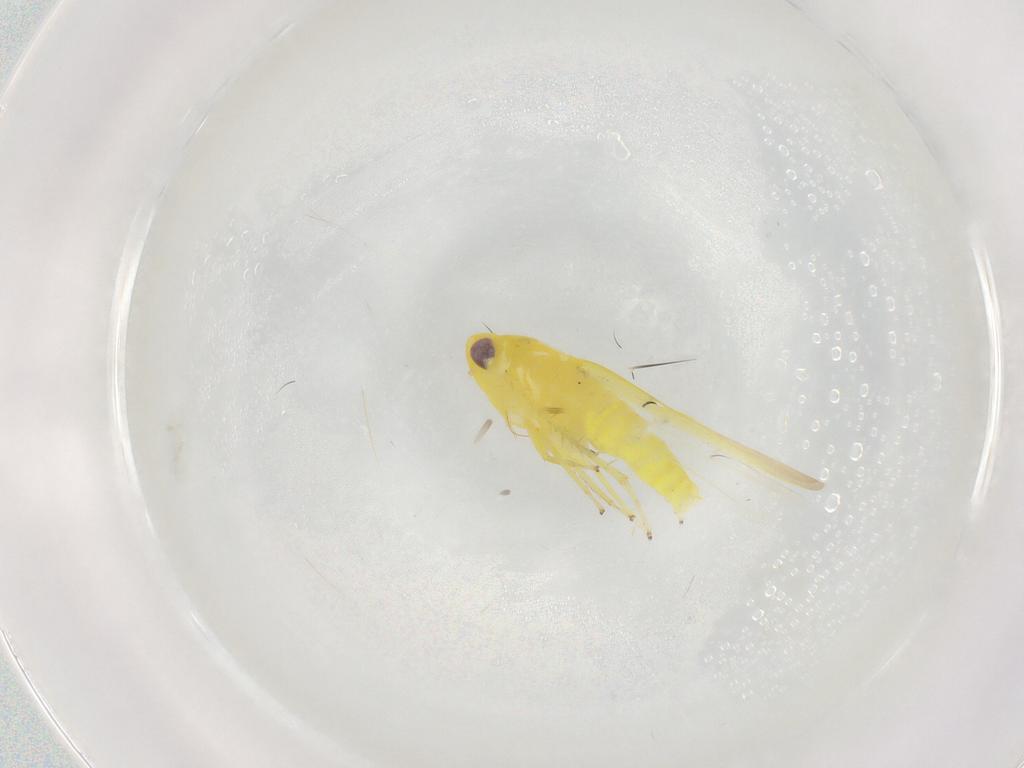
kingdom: Animalia
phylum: Arthropoda
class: Insecta
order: Hemiptera
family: Cicadellidae
